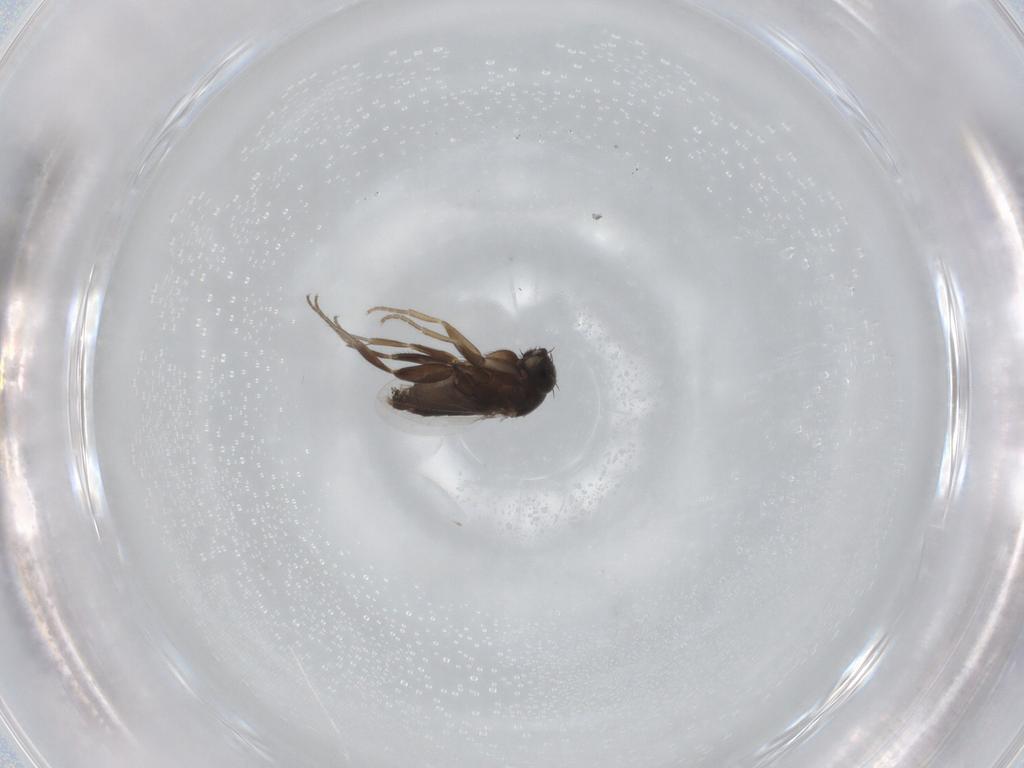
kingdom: Animalia
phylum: Arthropoda
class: Insecta
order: Diptera
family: Phoridae
